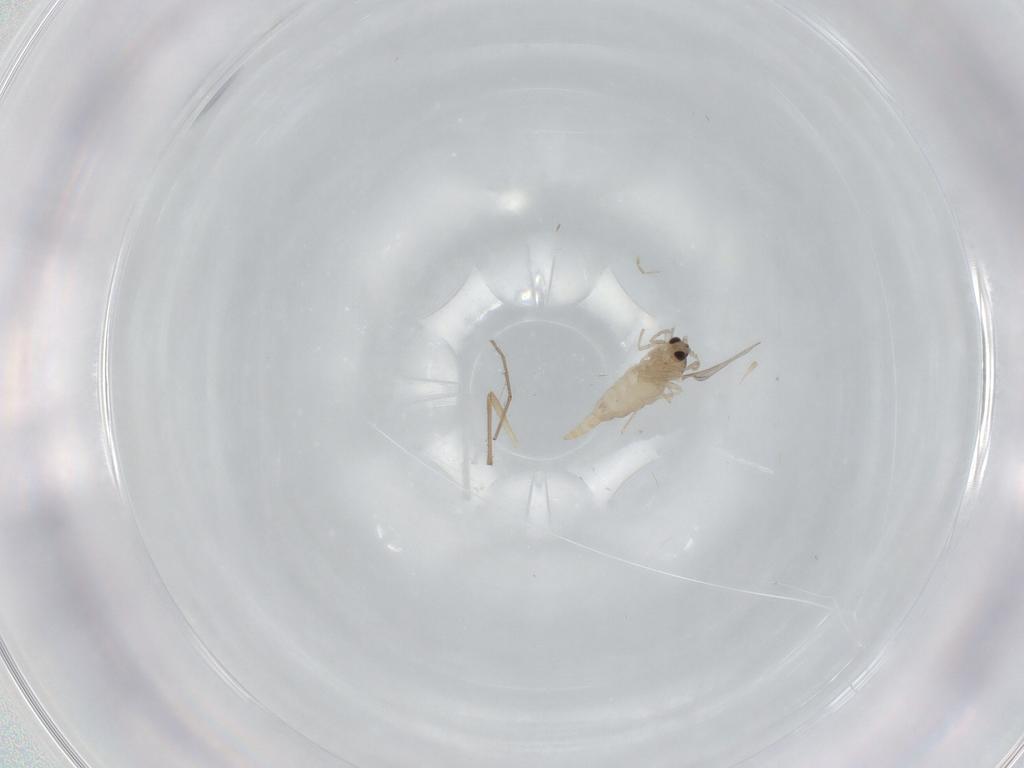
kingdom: Animalia
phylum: Arthropoda
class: Insecta
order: Diptera
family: Cecidomyiidae
